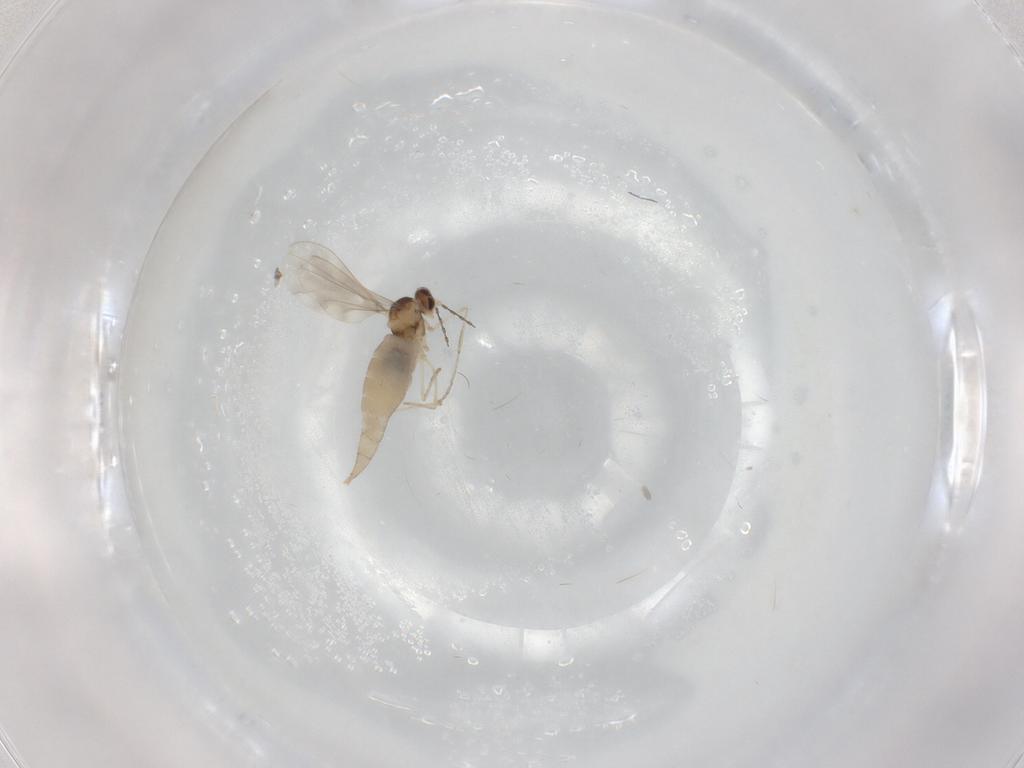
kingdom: Animalia
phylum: Arthropoda
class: Insecta
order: Diptera
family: Cecidomyiidae
